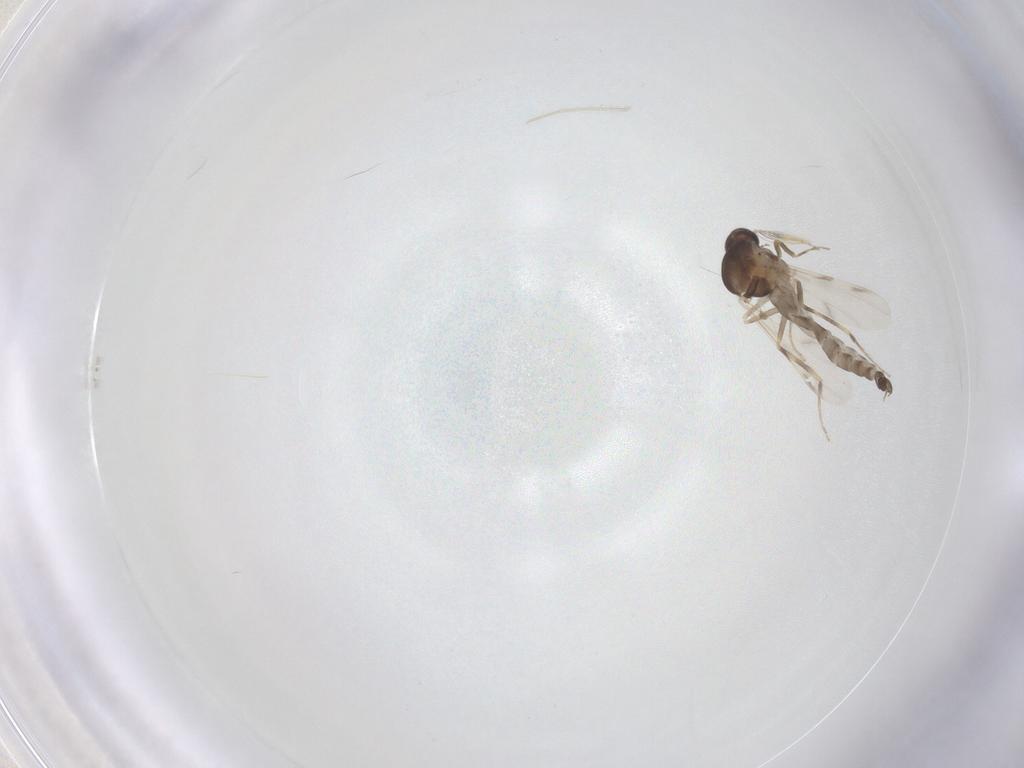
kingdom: Animalia
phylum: Arthropoda
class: Insecta
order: Diptera
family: Ceratopogonidae
